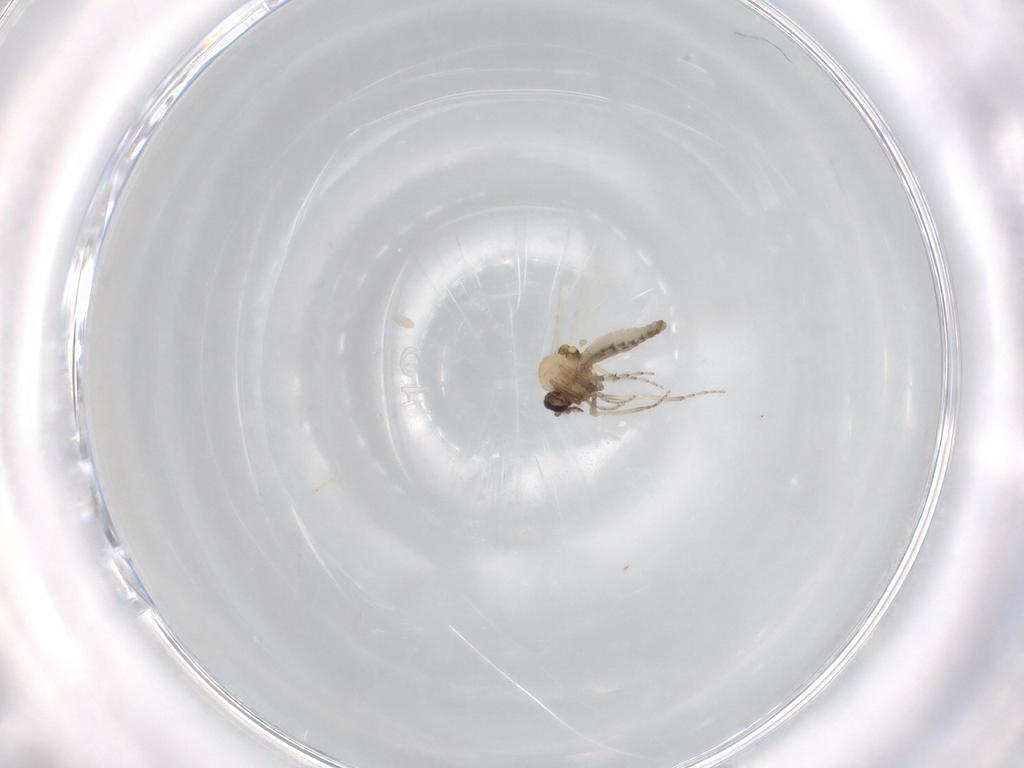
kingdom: Animalia
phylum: Arthropoda
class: Insecta
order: Diptera
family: Ceratopogonidae
